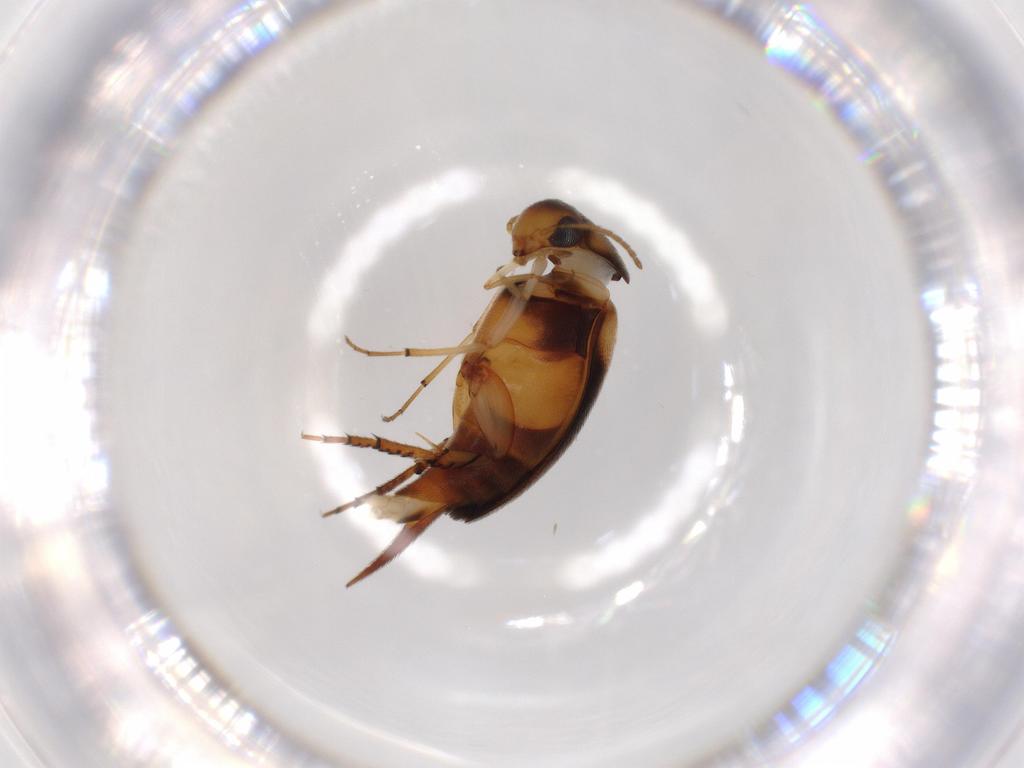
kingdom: Animalia
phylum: Arthropoda
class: Insecta
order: Coleoptera
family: Mordellidae
